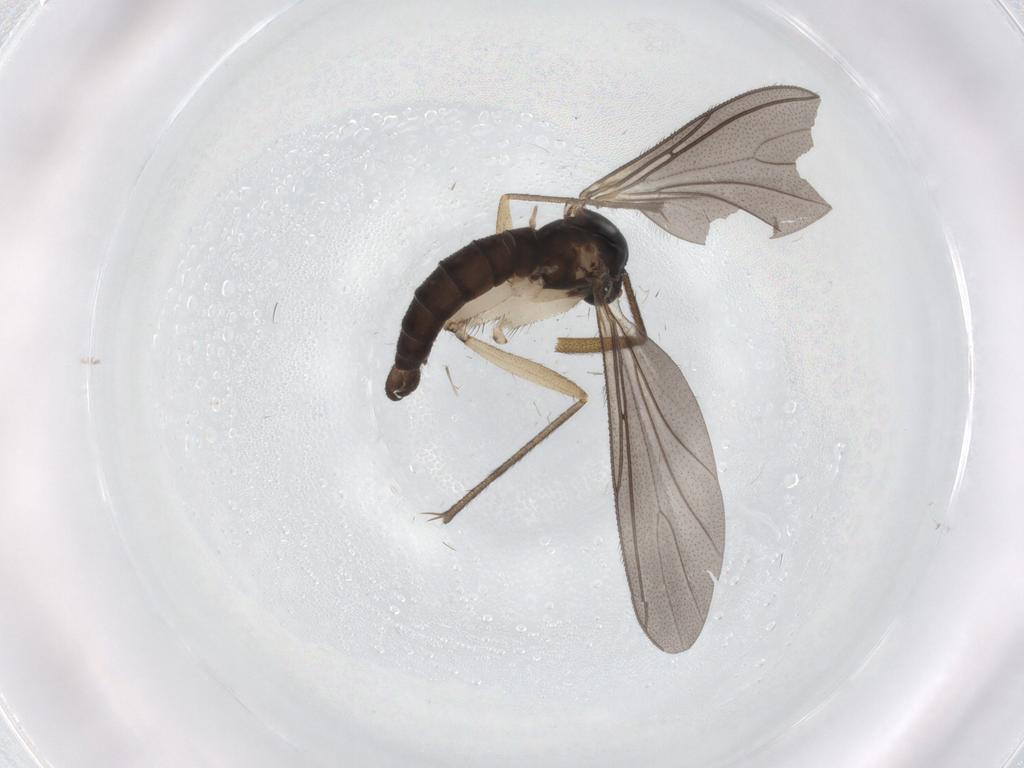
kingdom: Animalia
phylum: Arthropoda
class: Insecta
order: Diptera
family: Sciaridae
